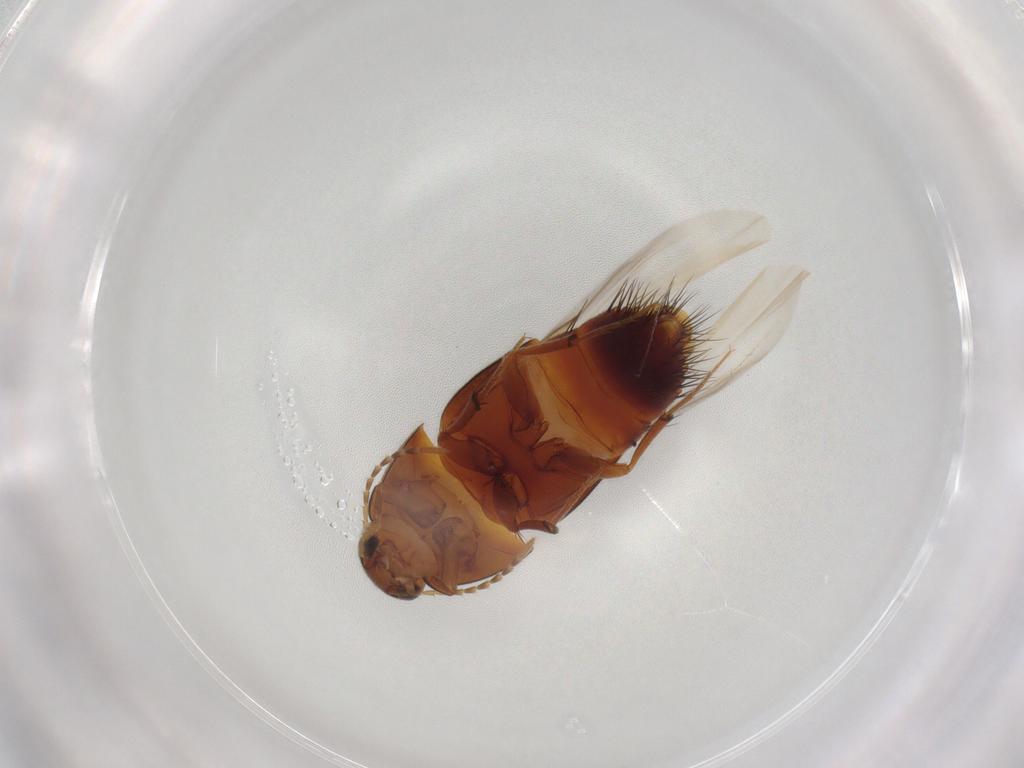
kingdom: Animalia
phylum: Arthropoda
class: Insecta
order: Coleoptera
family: Staphylinidae
